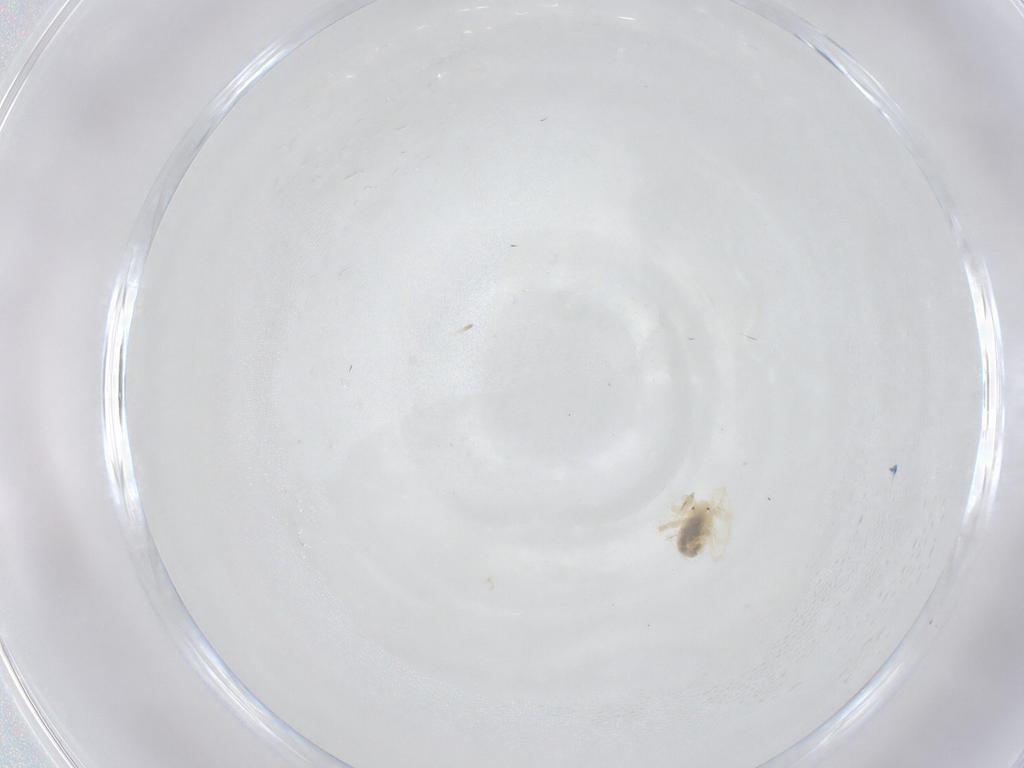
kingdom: Animalia
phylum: Arthropoda
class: Arachnida
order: Trombidiformes
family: Anystidae
